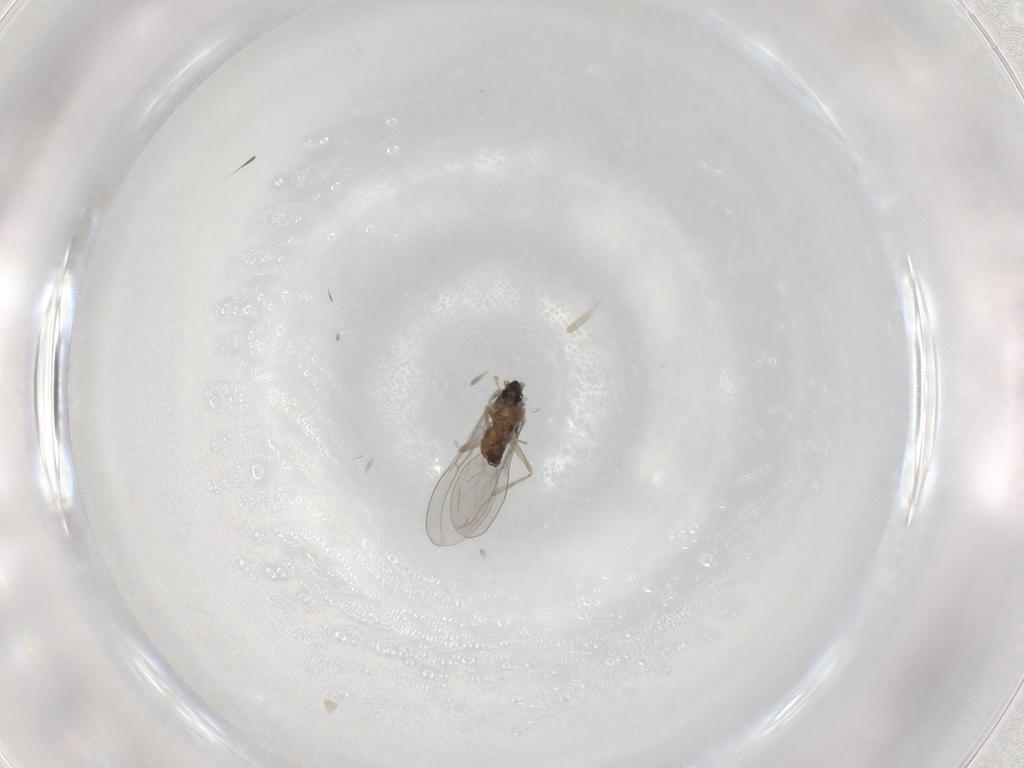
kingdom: Animalia
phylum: Arthropoda
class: Insecta
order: Diptera
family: Cecidomyiidae
